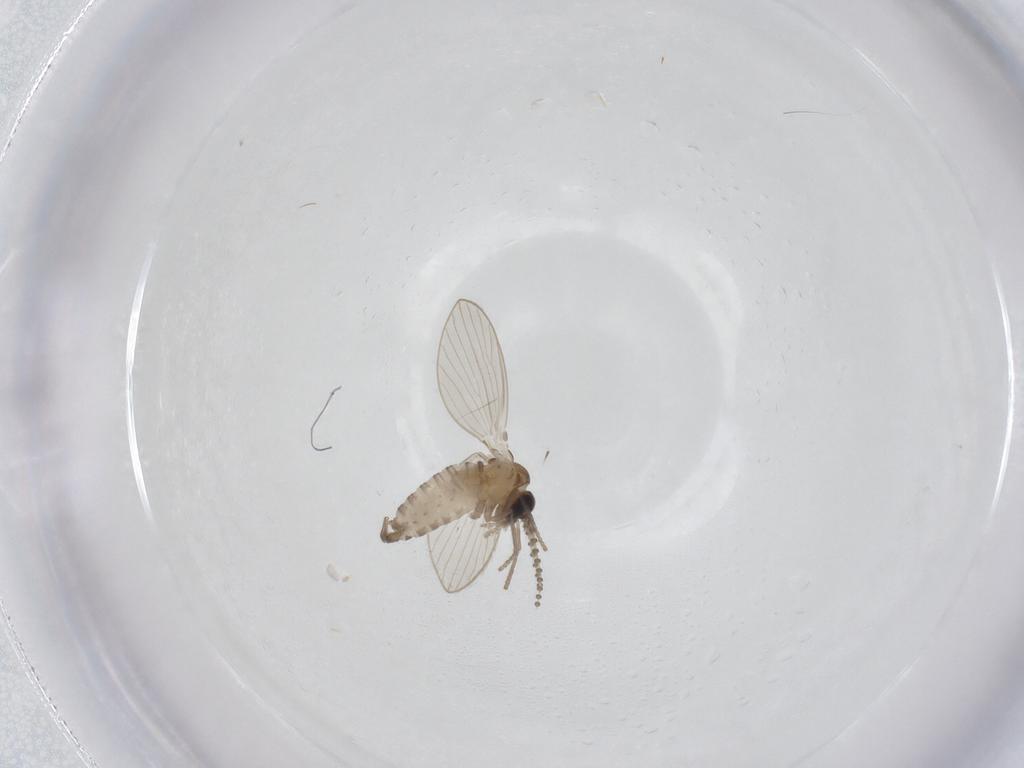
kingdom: Animalia
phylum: Arthropoda
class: Insecta
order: Diptera
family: Psychodidae
